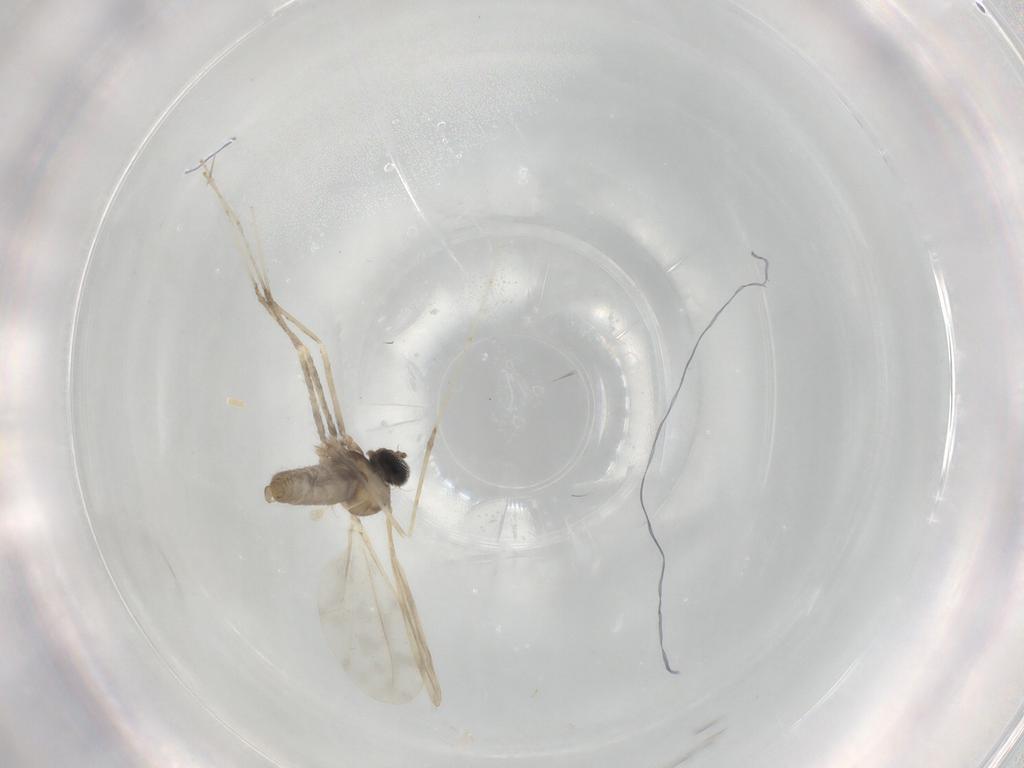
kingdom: Animalia
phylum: Arthropoda
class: Insecta
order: Diptera
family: Cecidomyiidae
